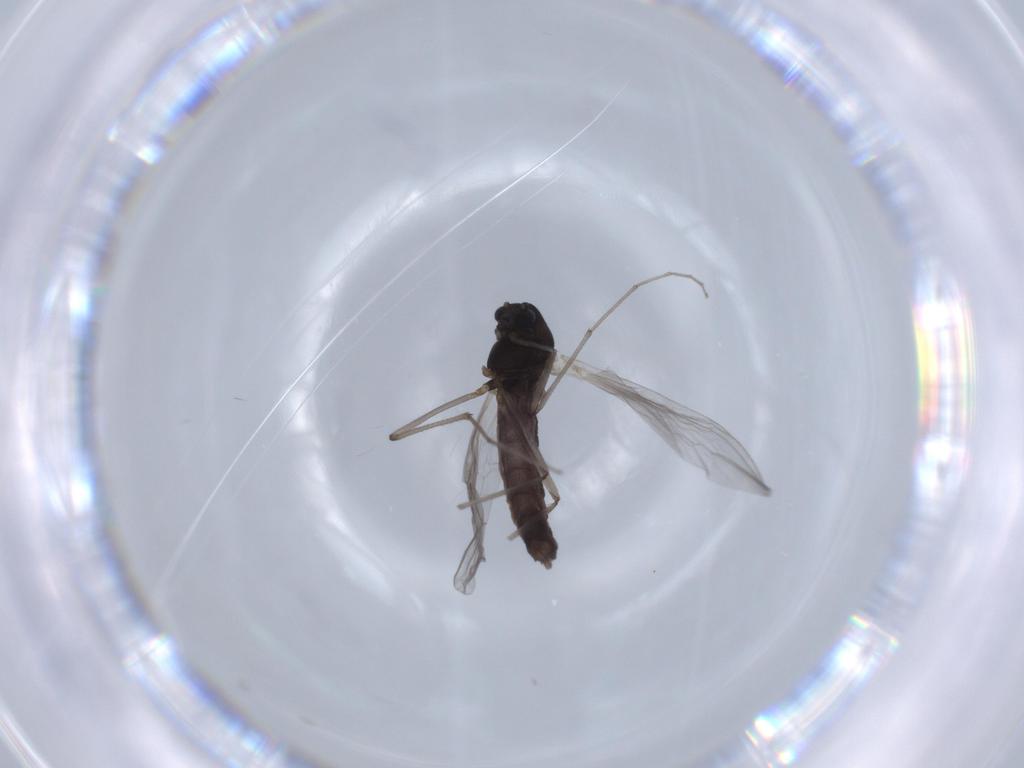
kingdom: Animalia
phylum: Arthropoda
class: Insecta
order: Diptera
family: Chironomidae
